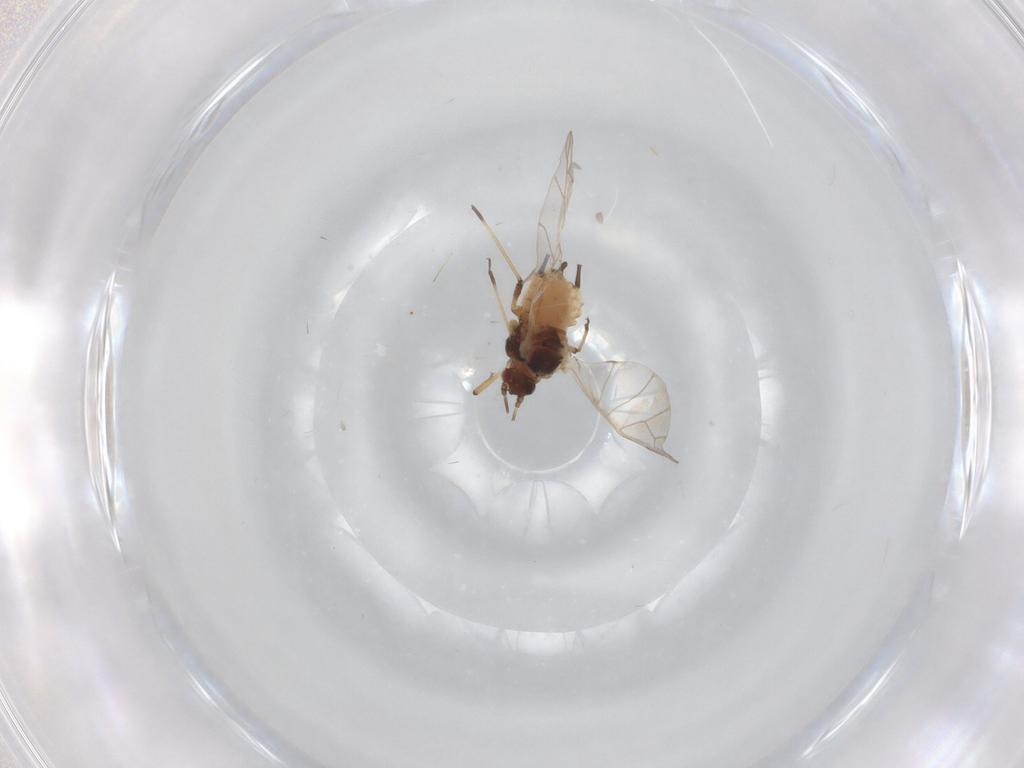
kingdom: Animalia
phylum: Arthropoda
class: Insecta
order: Hemiptera
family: Aphididae
